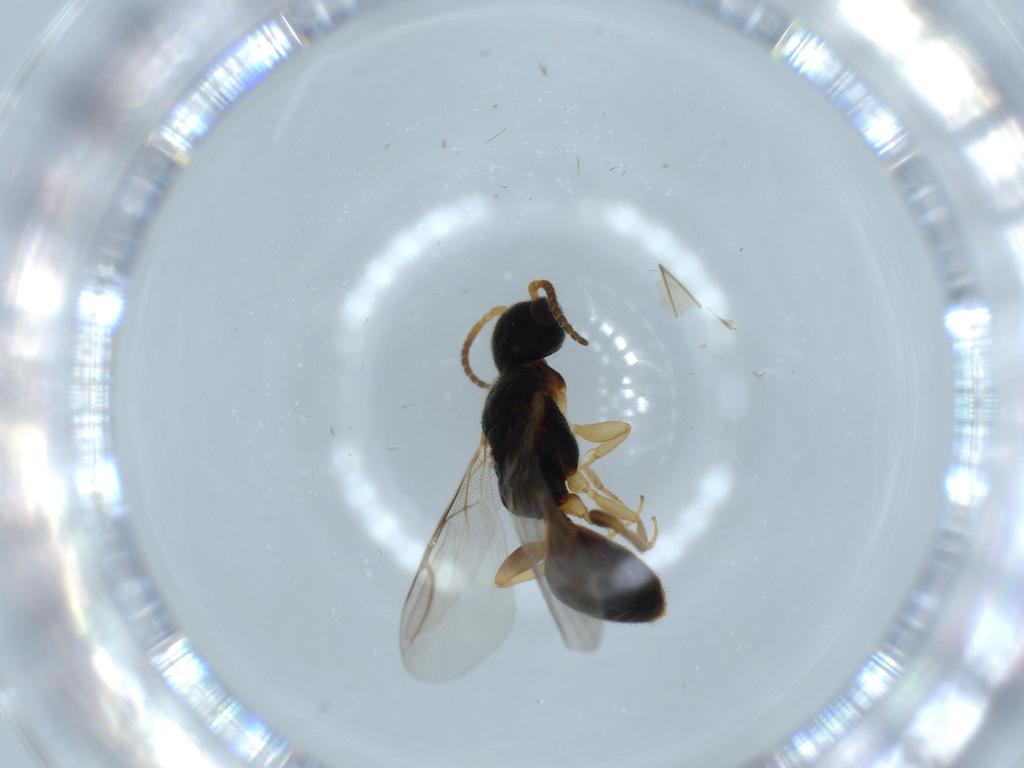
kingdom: Animalia
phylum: Arthropoda
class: Insecta
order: Hymenoptera
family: Bethylidae
